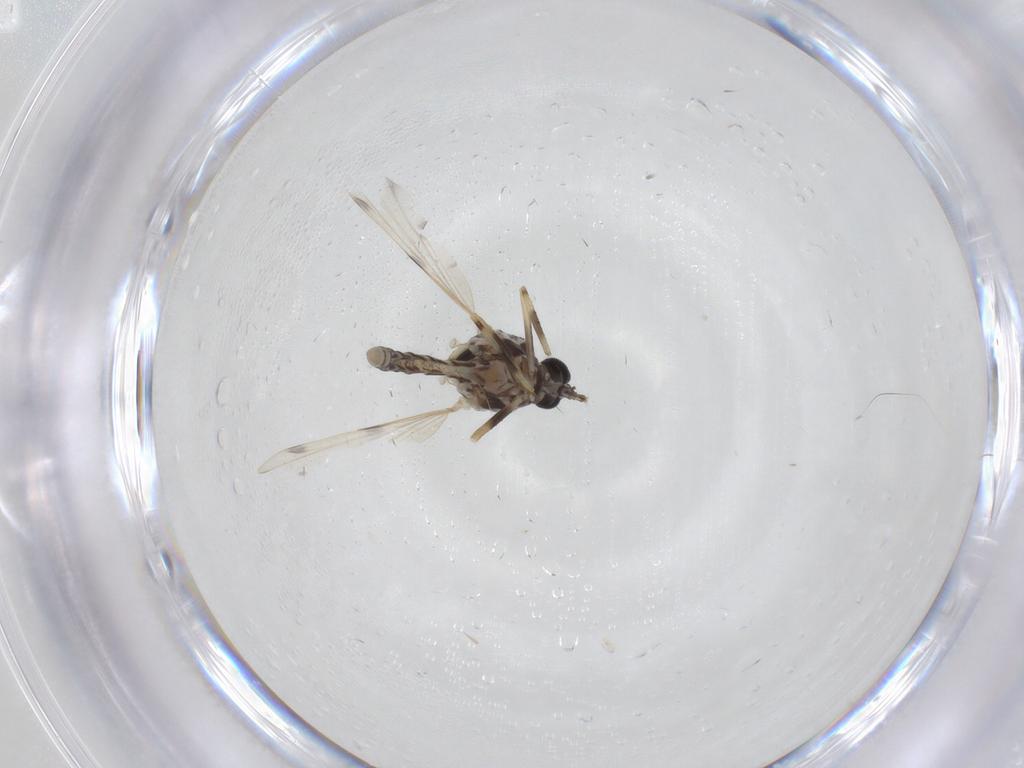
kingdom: Animalia
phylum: Arthropoda
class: Insecta
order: Diptera
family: Ceratopogonidae
